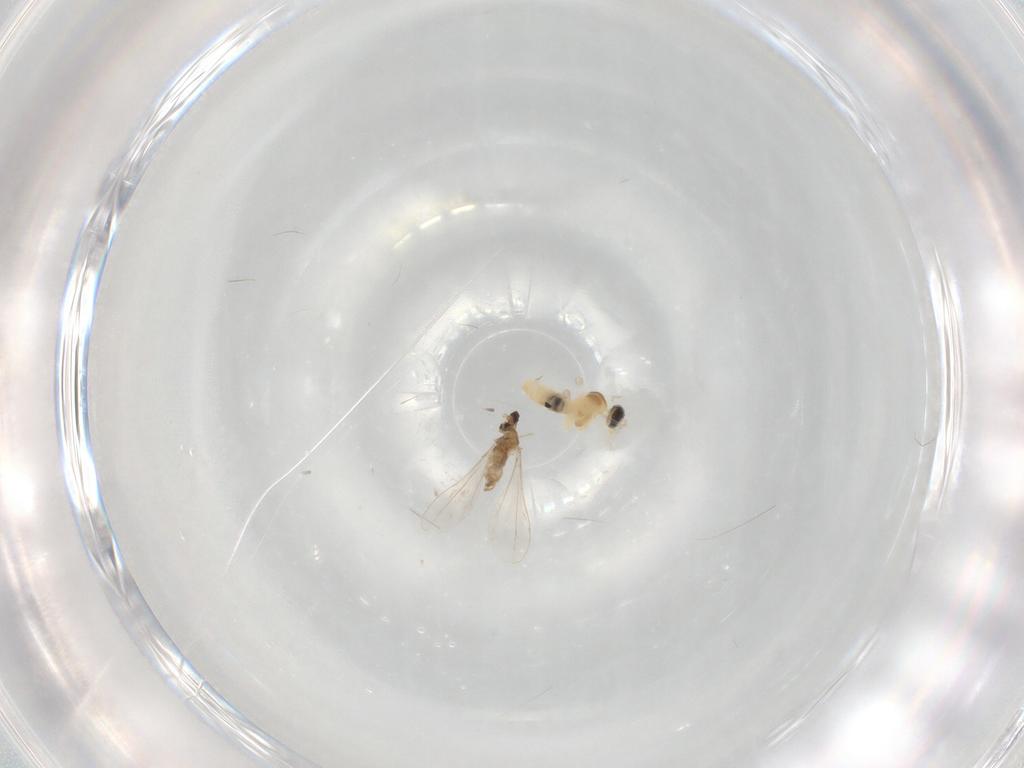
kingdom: Animalia
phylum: Arthropoda
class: Insecta
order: Diptera
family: Cecidomyiidae
